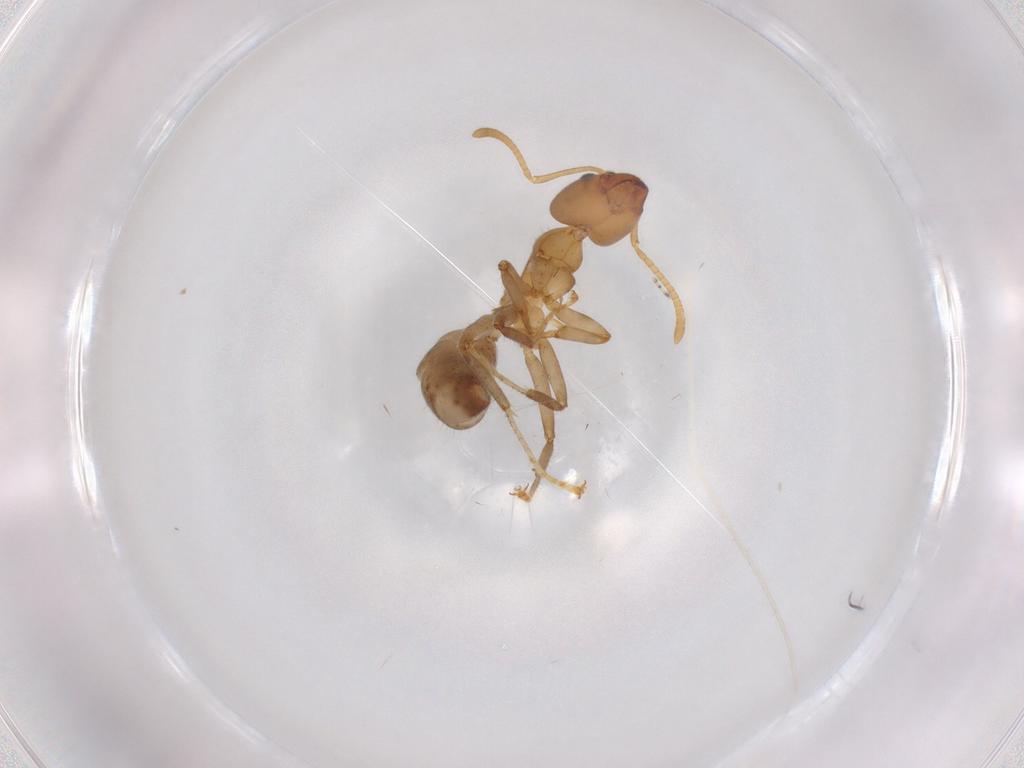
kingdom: Animalia
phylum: Arthropoda
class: Insecta
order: Hymenoptera
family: Formicidae
